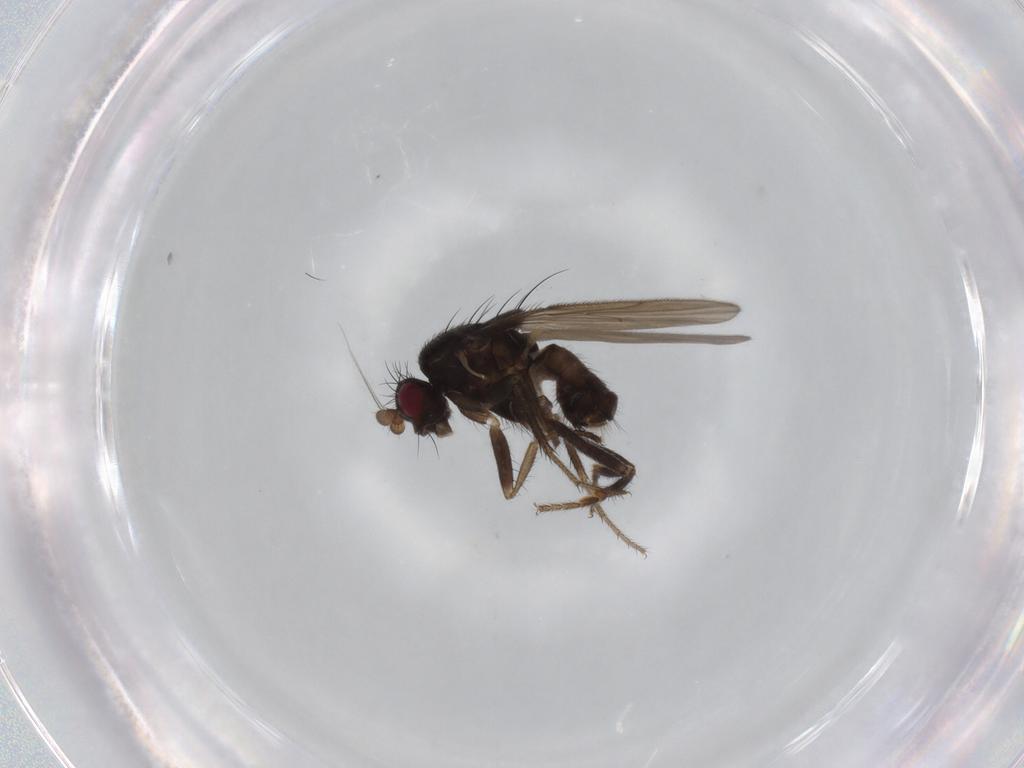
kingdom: Animalia
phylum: Arthropoda
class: Insecta
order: Diptera
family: Sphaeroceridae
